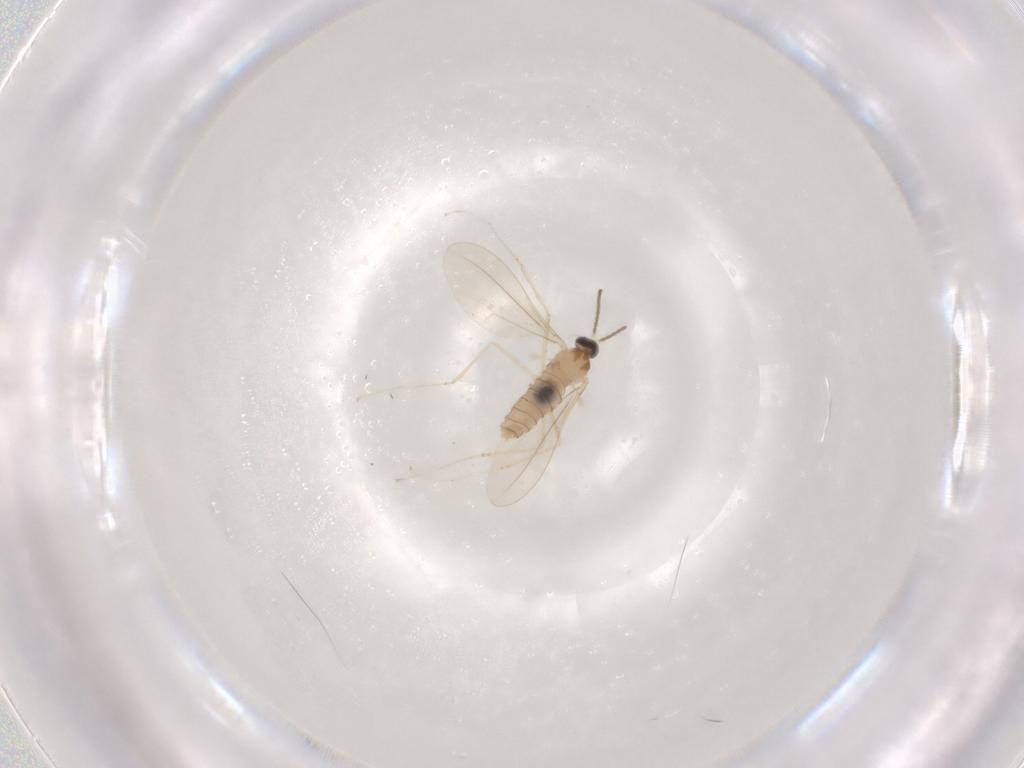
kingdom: Animalia
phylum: Arthropoda
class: Insecta
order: Diptera
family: Cecidomyiidae
